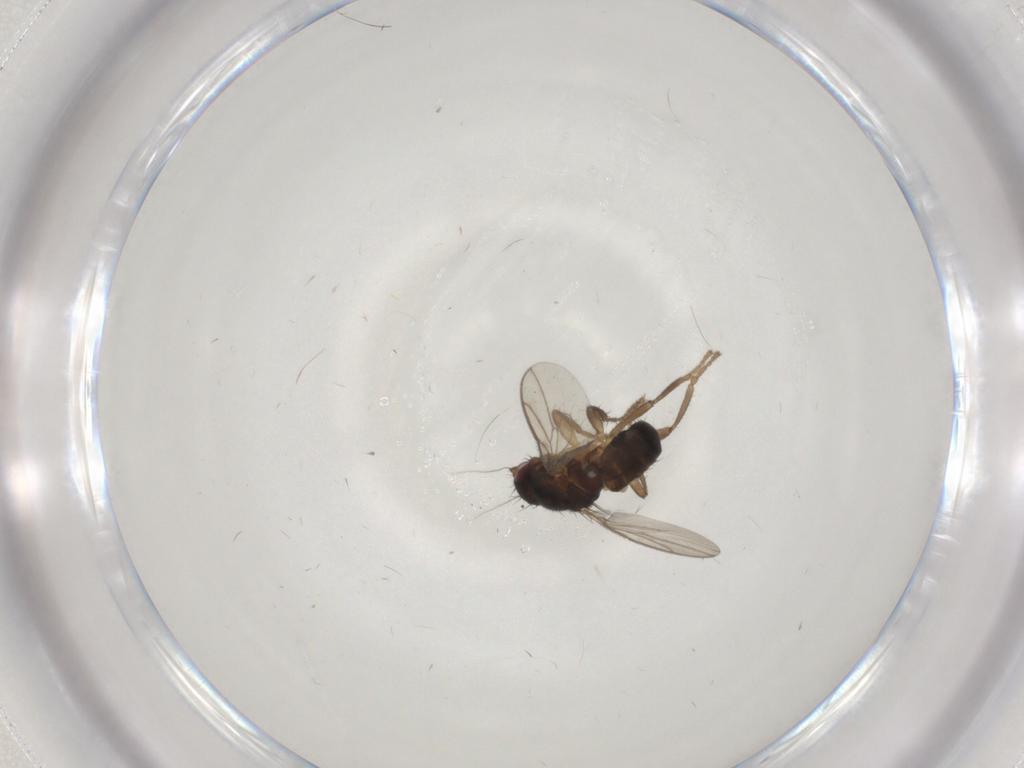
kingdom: Animalia
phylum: Arthropoda
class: Insecta
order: Diptera
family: Sphaeroceridae
